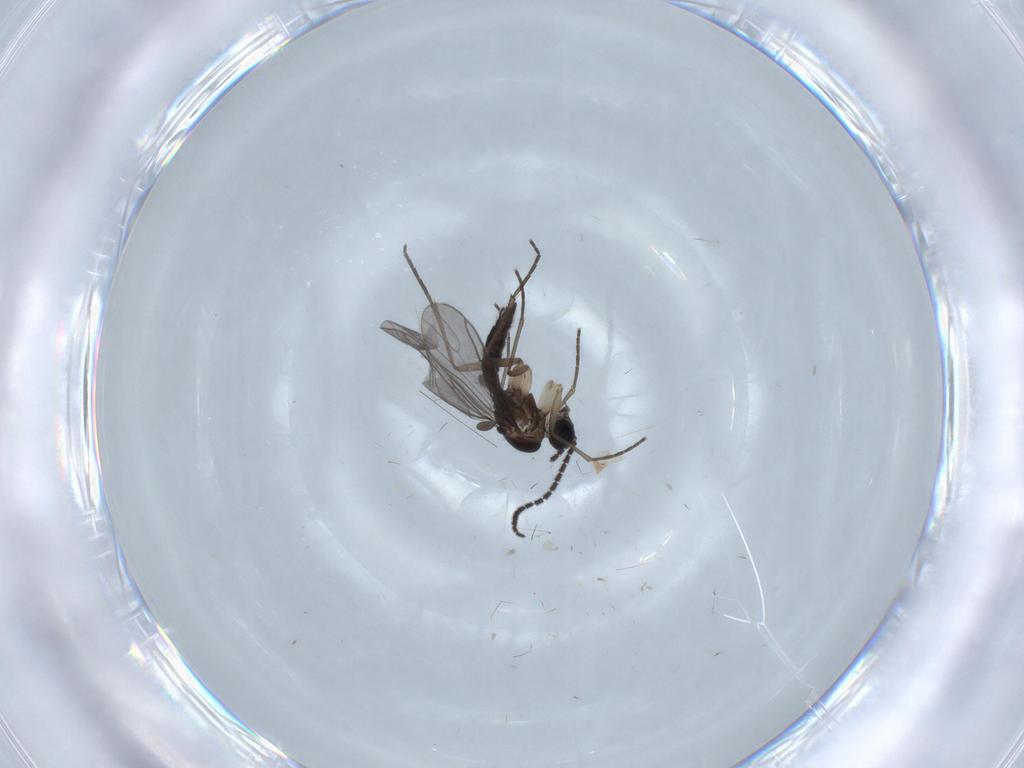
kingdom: Animalia
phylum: Arthropoda
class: Insecta
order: Diptera
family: Sciaridae
